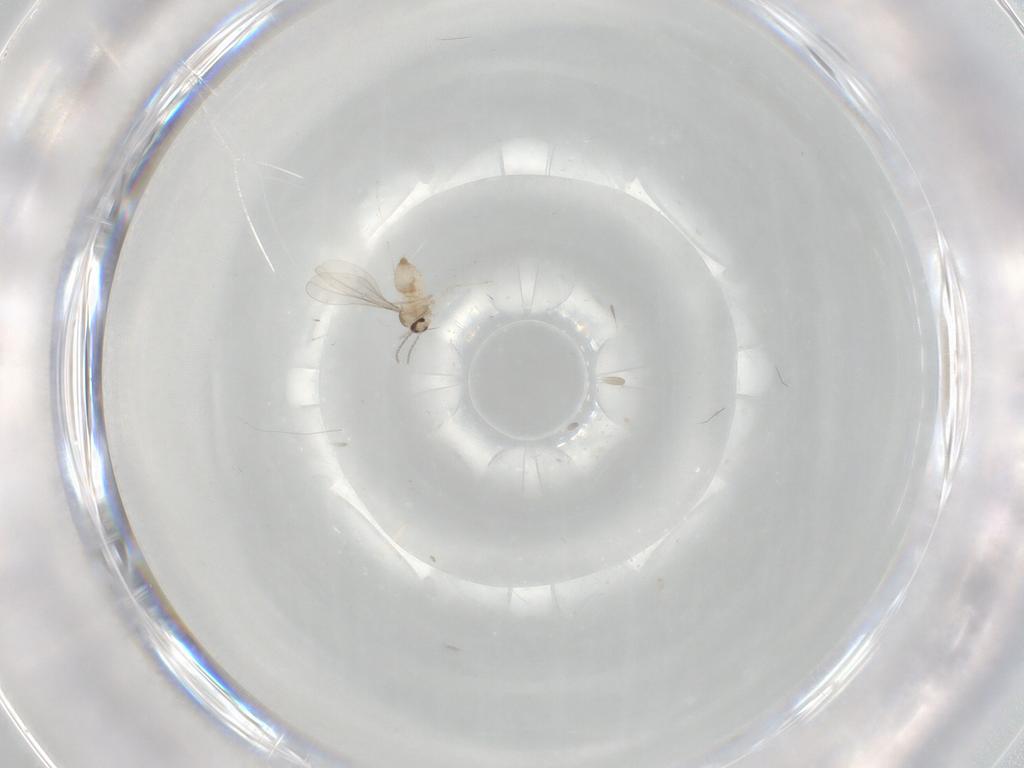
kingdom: Animalia
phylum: Arthropoda
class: Insecta
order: Diptera
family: Cecidomyiidae
